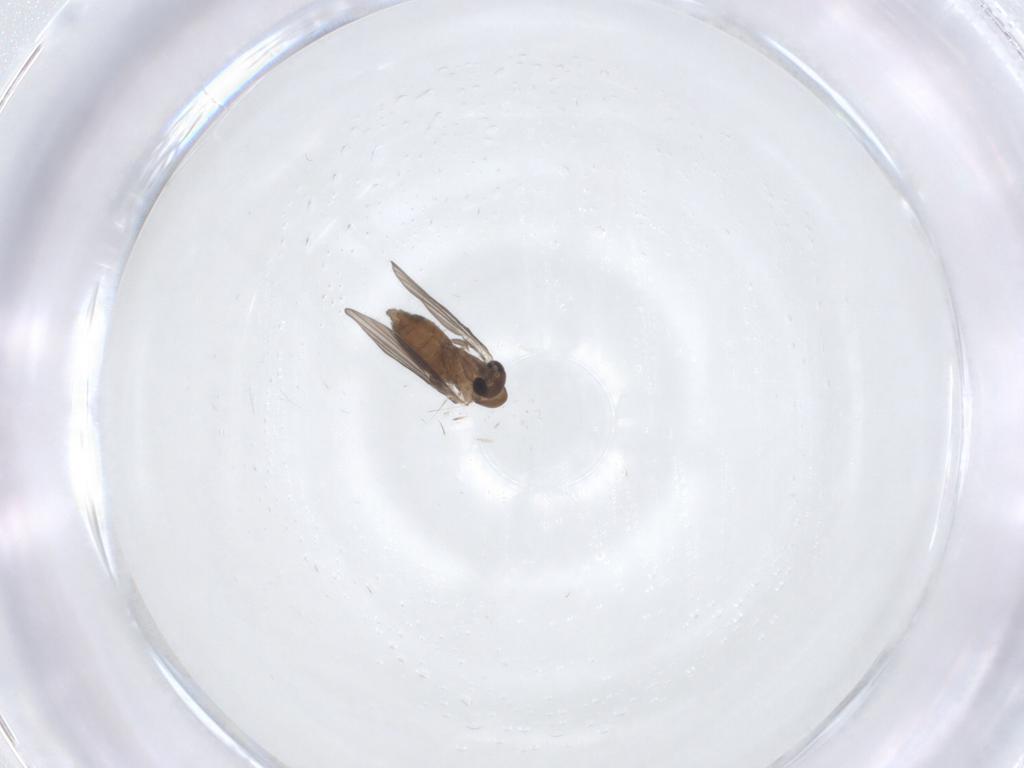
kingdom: Animalia
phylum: Arthropoda
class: Insecta
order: Diptera
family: Psychodidae
